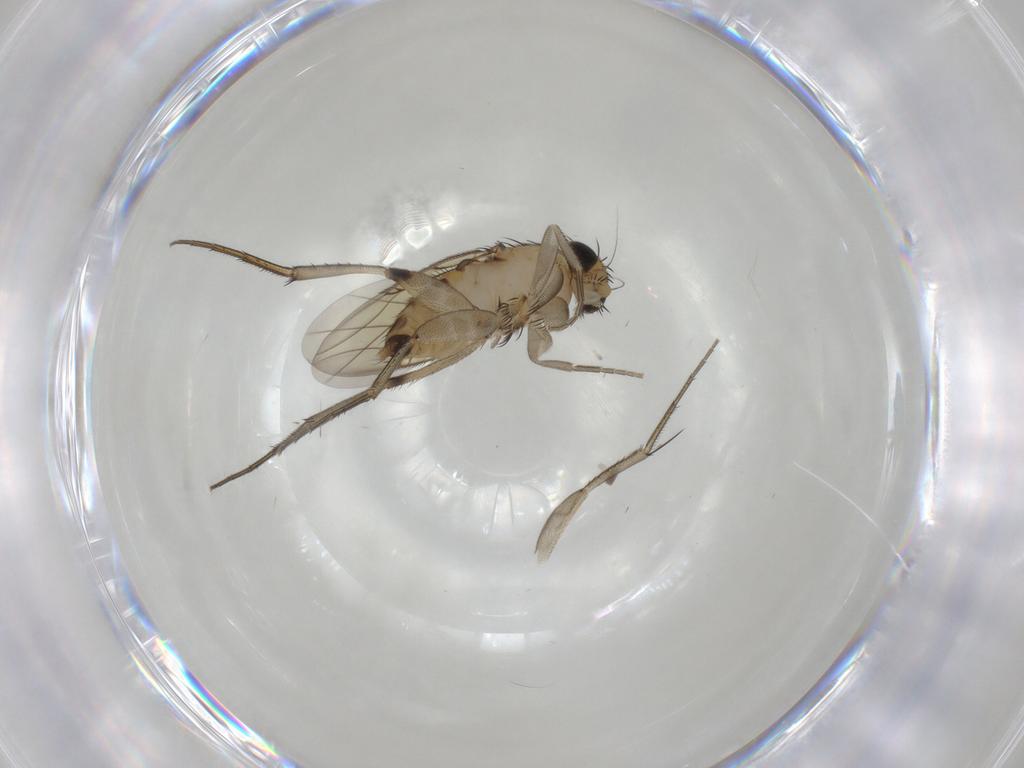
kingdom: Animalia
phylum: Arthropoda
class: Insecta
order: Diptera
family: Phoridae
